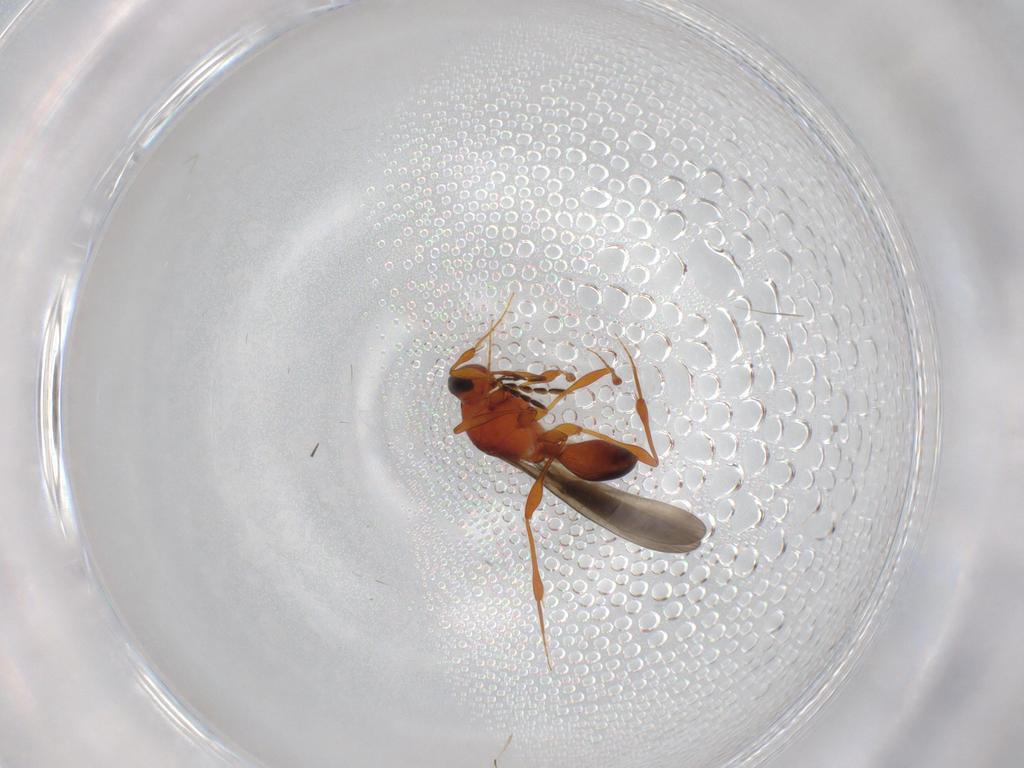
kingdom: Animalia
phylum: Arthropoda
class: Insecta
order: Hymenoptera
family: Platygastridae
